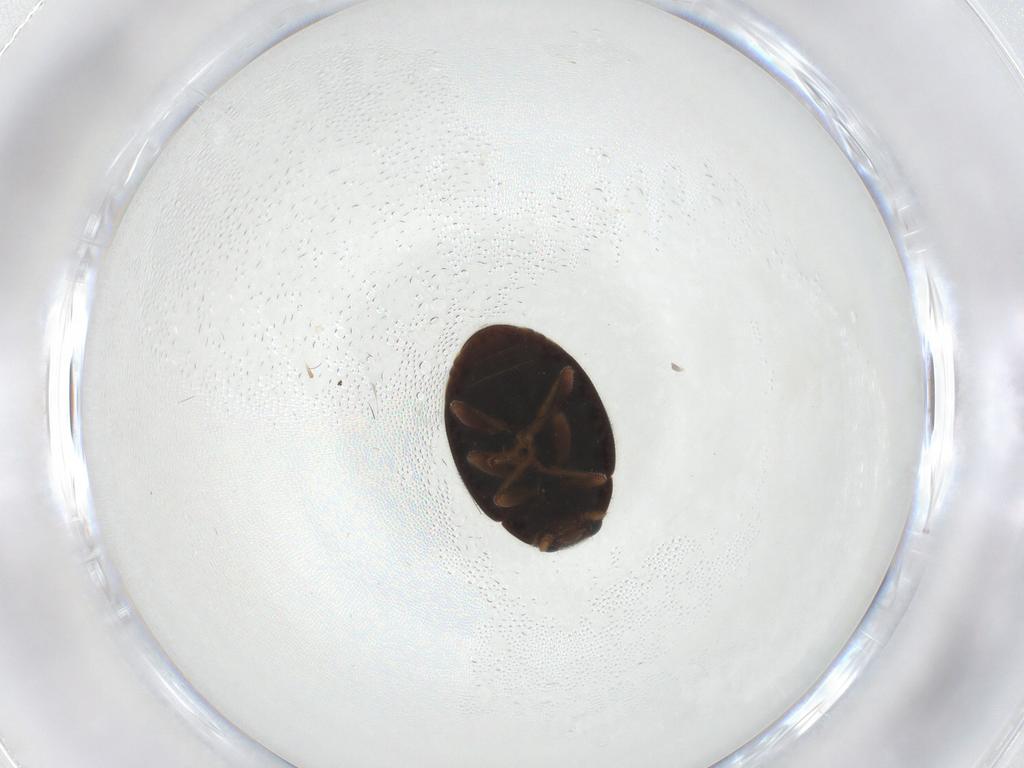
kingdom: Animalia
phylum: Arthropoda
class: Insecta
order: Coleoptera
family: Coccinellidae
